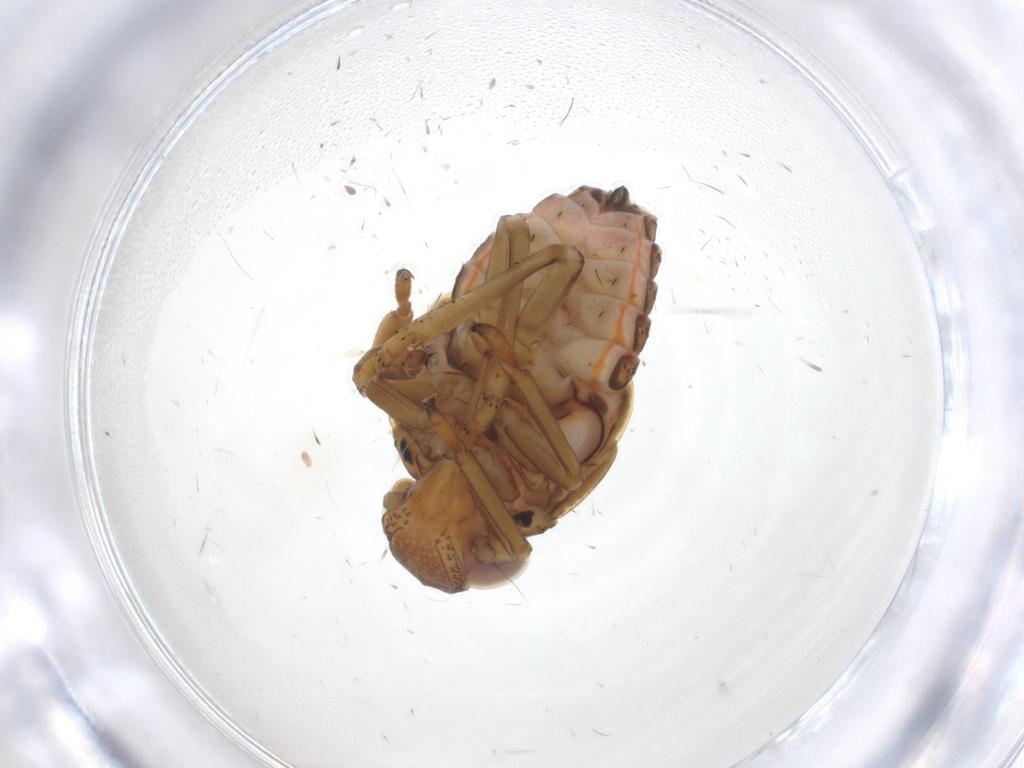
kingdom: Animalia
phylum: Arthropoda
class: Insecta
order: Hemiptera
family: Issidae
